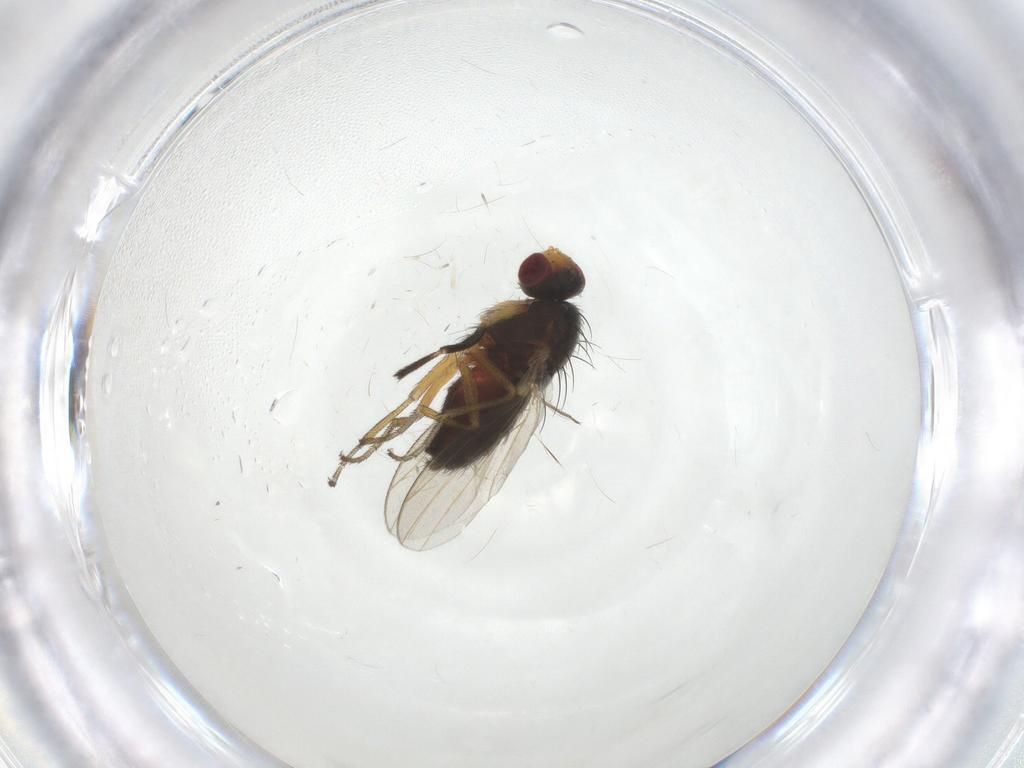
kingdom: Animalia
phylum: Arthropoda
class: Insecta
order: Diptera
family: Heleomyzidae
